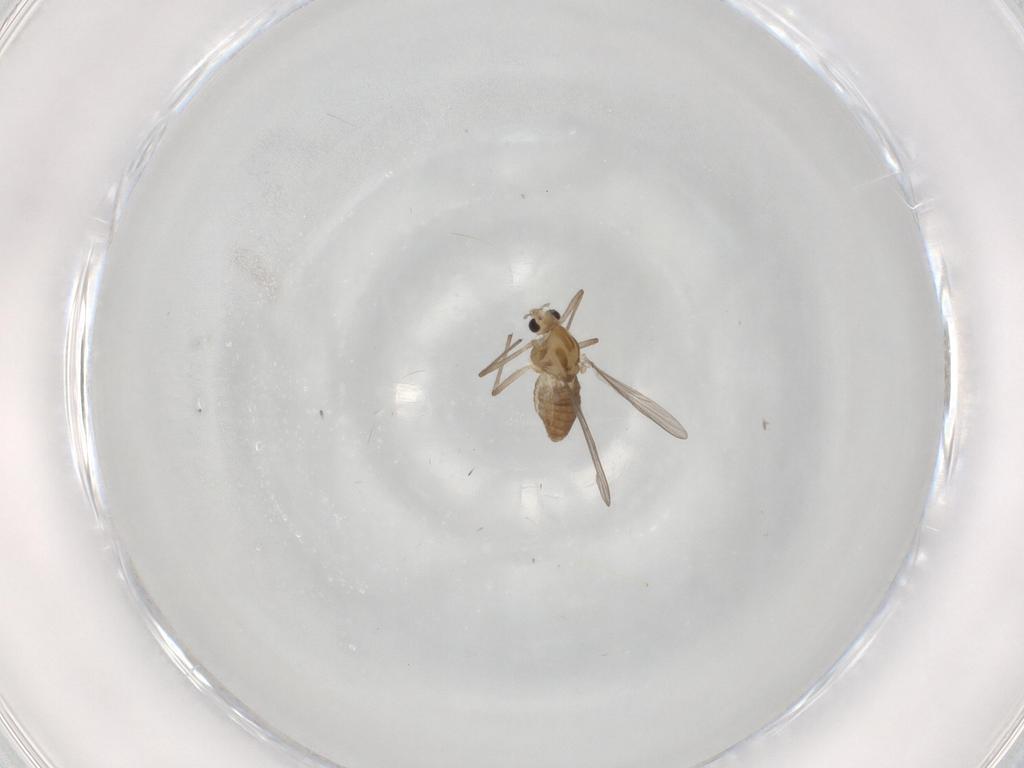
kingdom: Animalia
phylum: Arthropoda
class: Insecta
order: Diptera
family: Chironomidae
